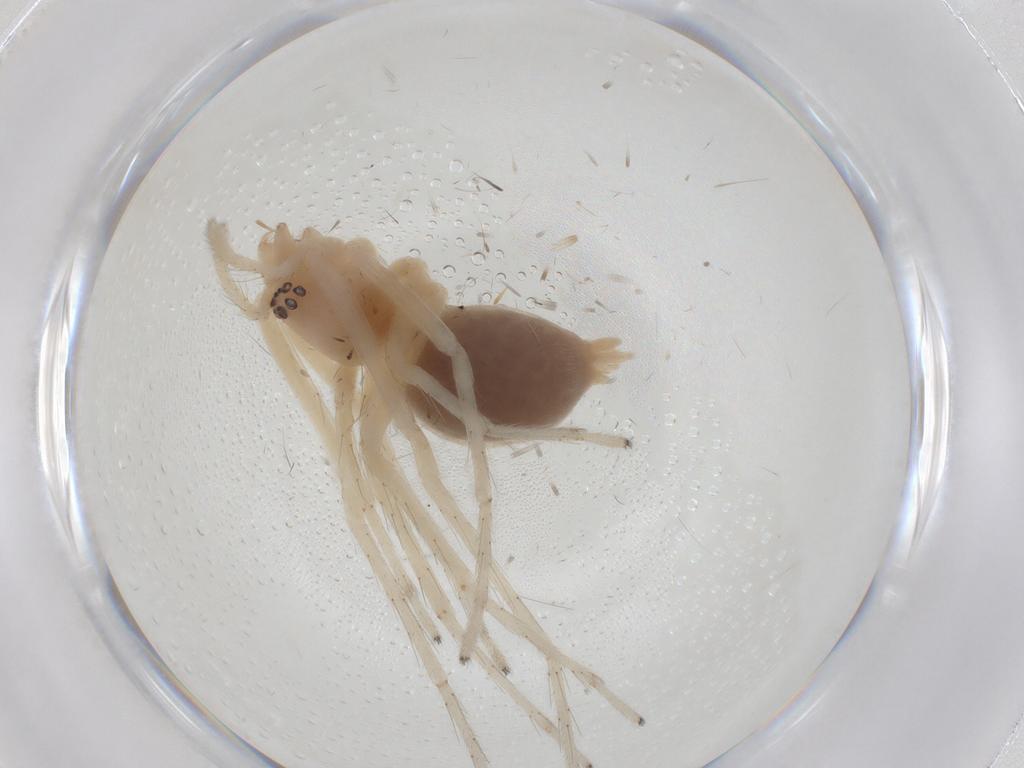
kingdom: Animalia
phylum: Arthropoda
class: Arachnida
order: Araneae
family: Anyphaenidae
